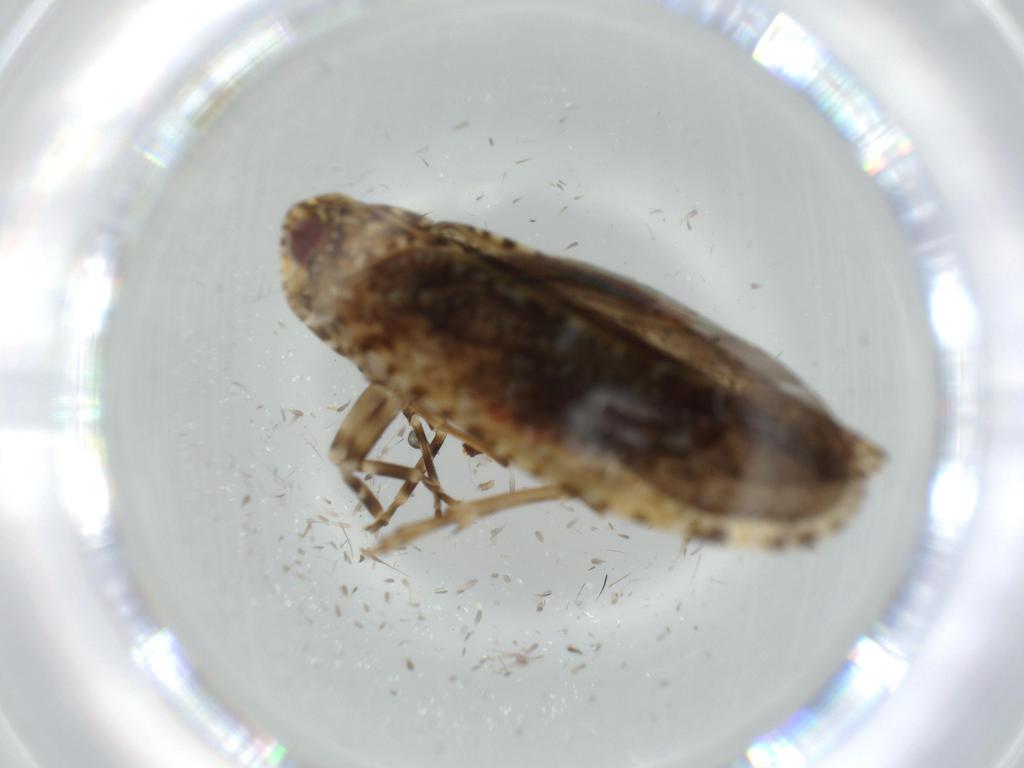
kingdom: Animalia
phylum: Arthropoda
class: Insecta
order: Hemiptera
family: Achilidae
